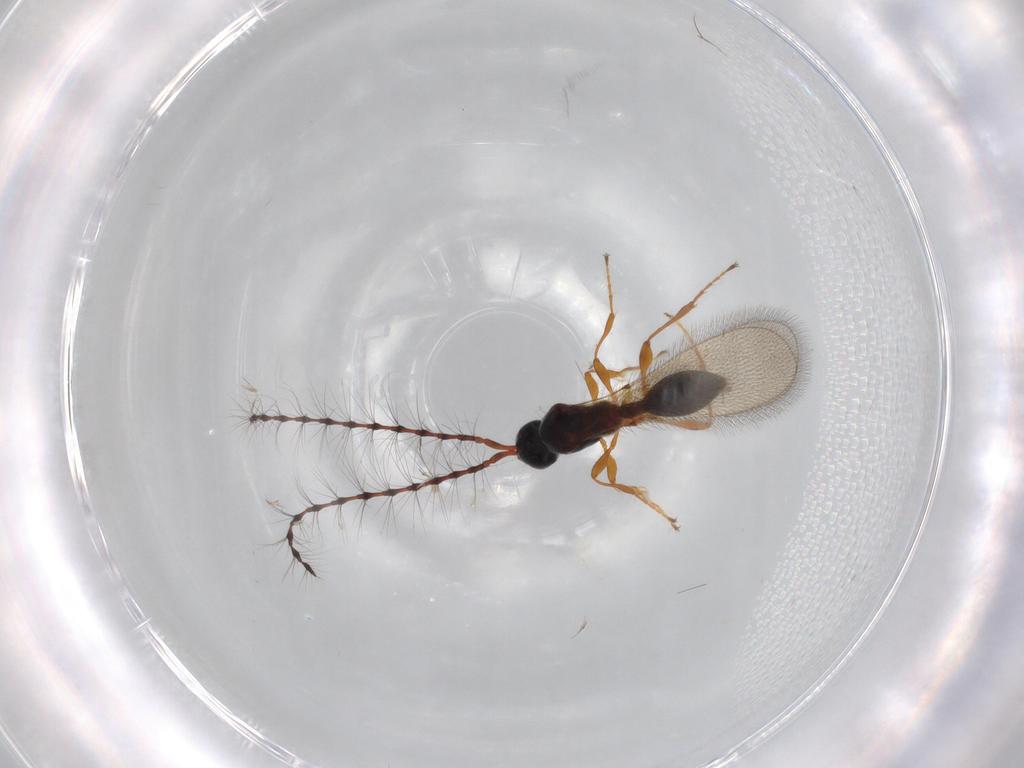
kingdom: Animalia
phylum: Arthropoda
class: Insecta
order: Hymenoptera
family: Diapriidae
